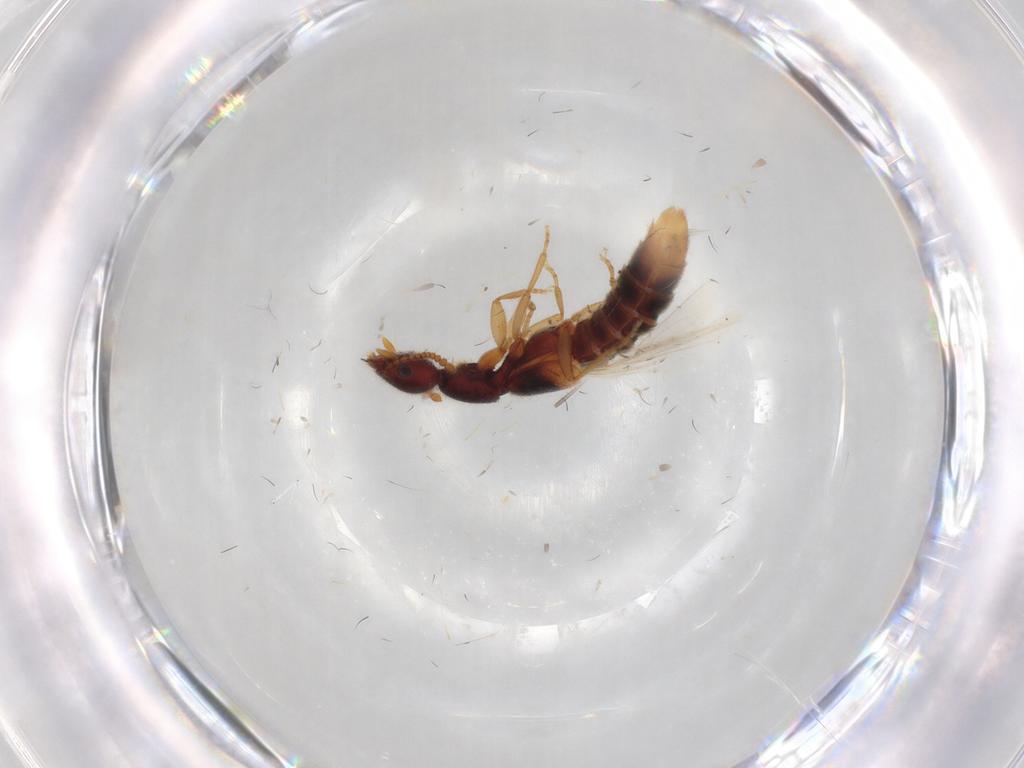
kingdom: Animalia
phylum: Arthropoda
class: Insecta
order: Coleoptera
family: Staphylinidae
